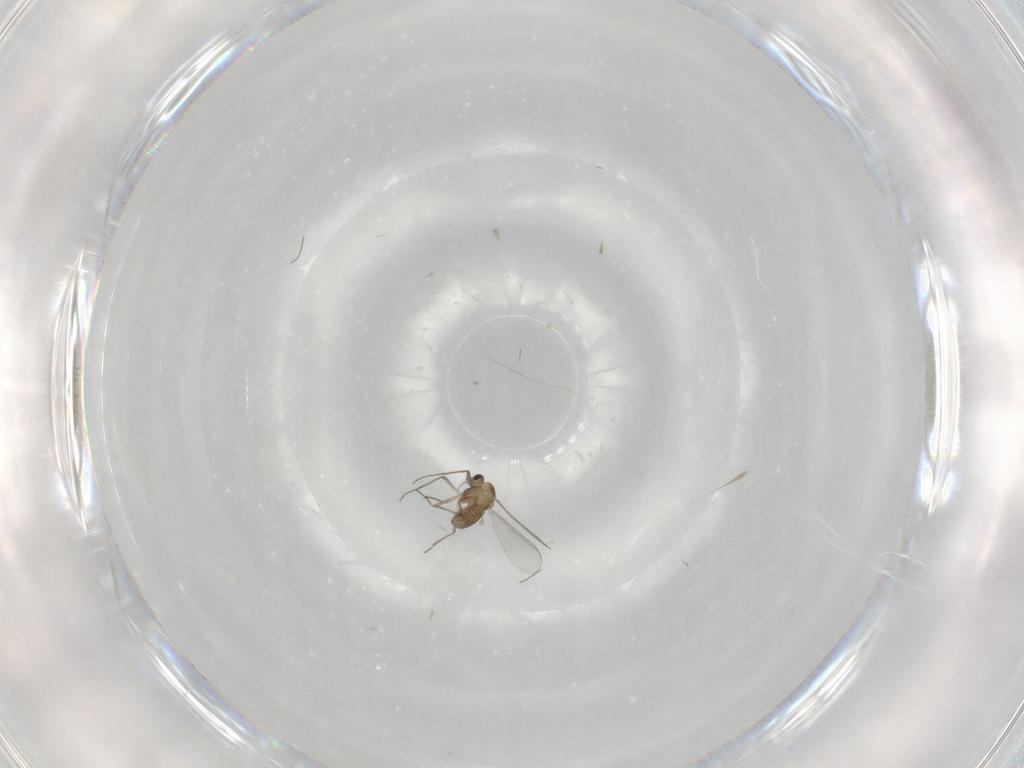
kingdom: Animalia
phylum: Arthropoda
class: Insecta
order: Diptera
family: Chironomidae
